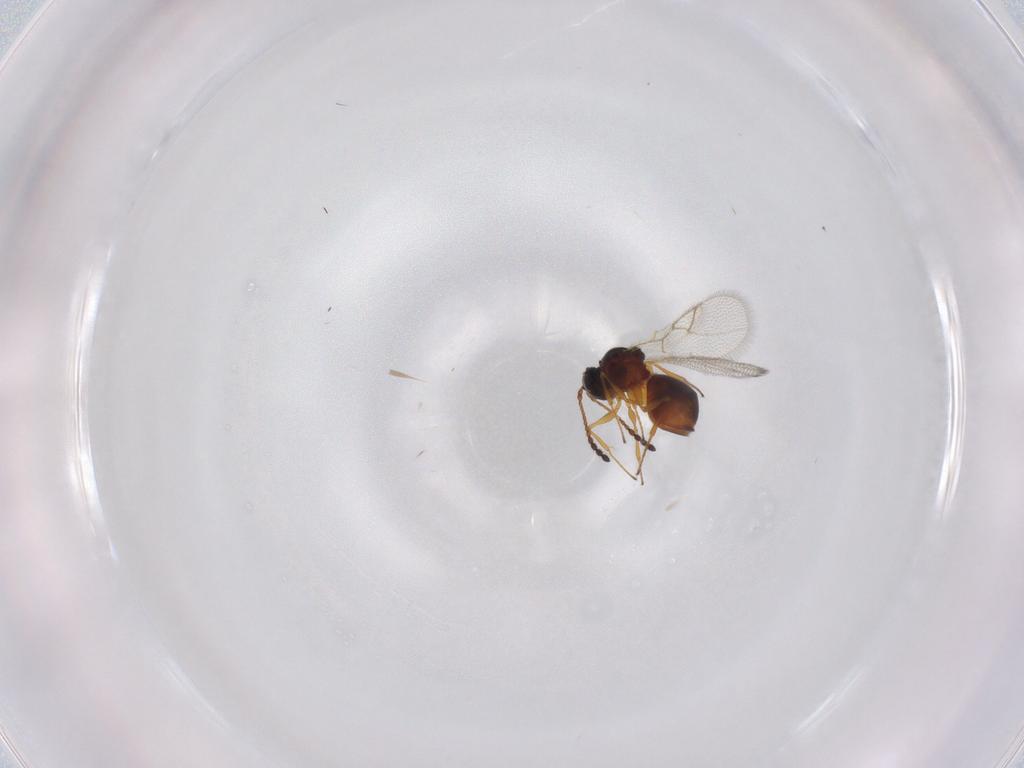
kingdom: Animalia
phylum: Arthropoda
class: Insecta
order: Hymenoptera
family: Figitidae
